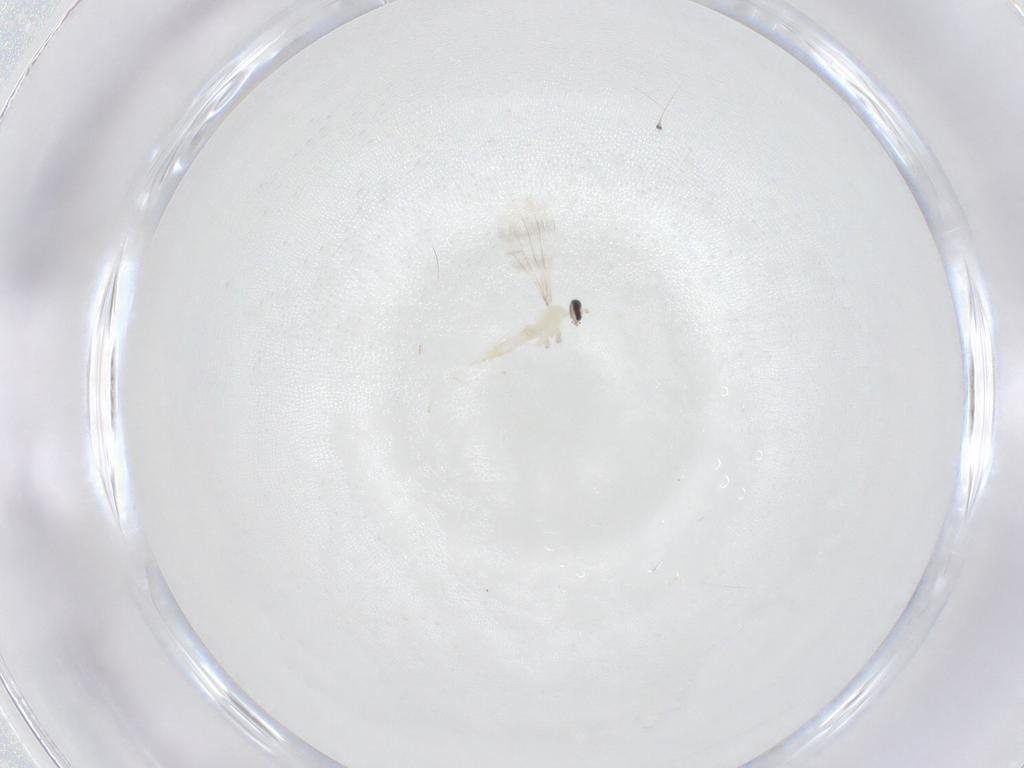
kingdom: Animalia
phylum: Arthropoda
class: Insecta
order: Diptera
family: Cecidomyiidae
